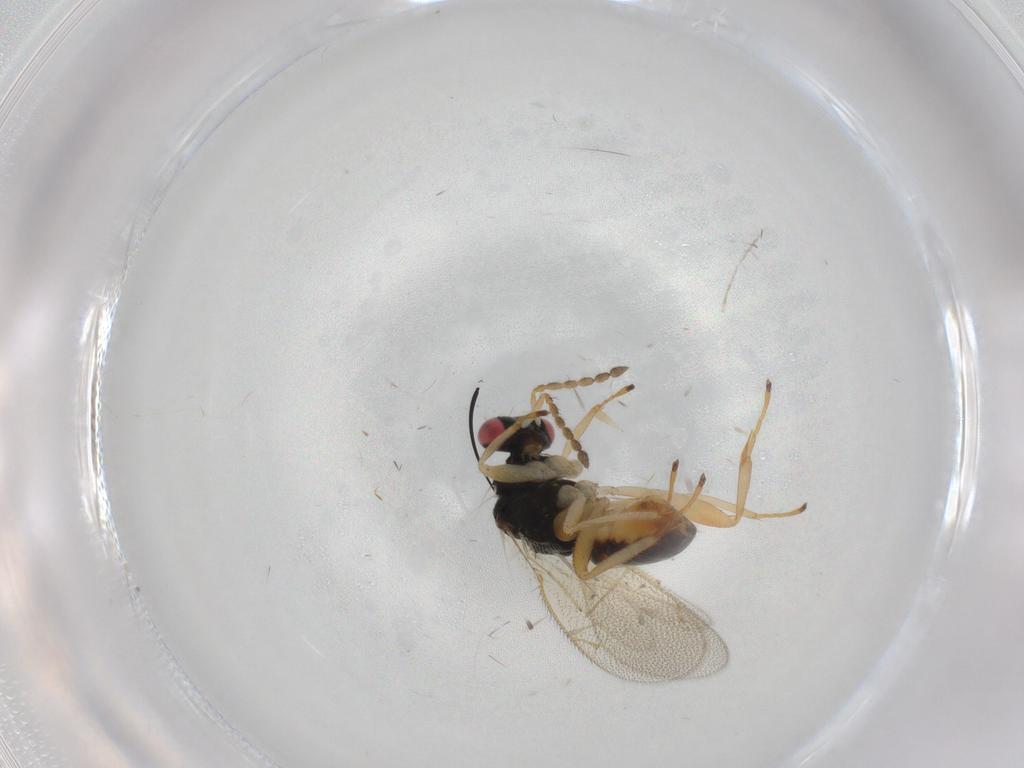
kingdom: Animalia
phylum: Arthropoda
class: Insecta
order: Hymenoptera
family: Eulophidae
